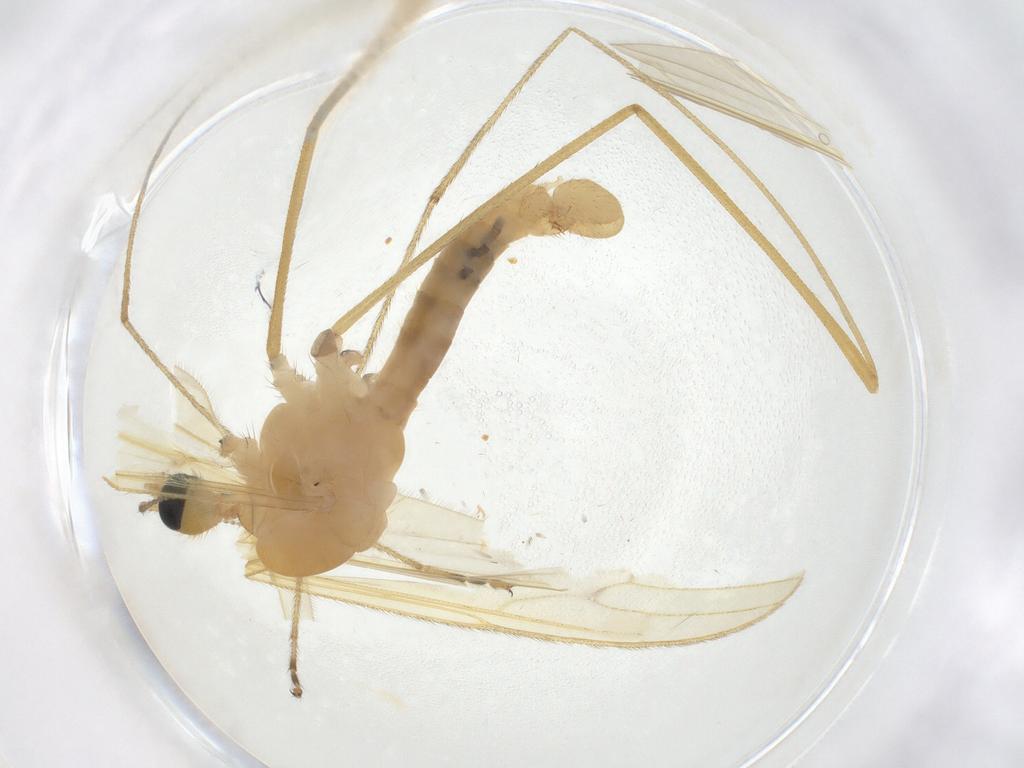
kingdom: Animalia
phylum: Arthropoda
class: Insecta
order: Diptera
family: Limoniidae
